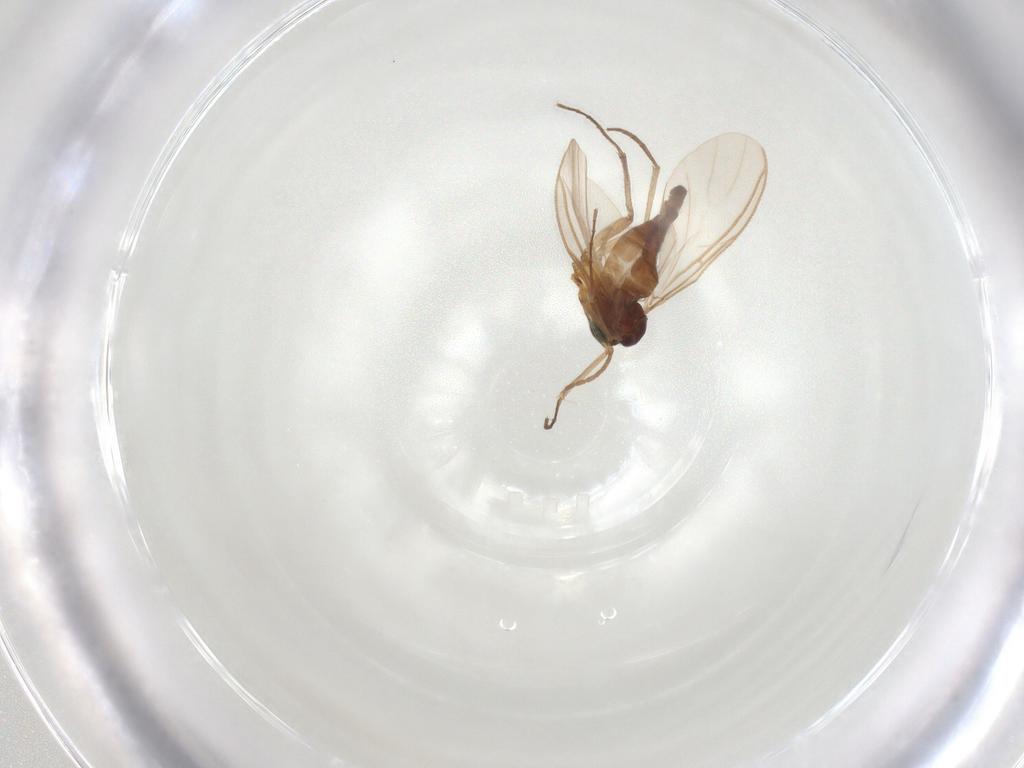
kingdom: Animalia
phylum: Arthropoda
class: Insecta
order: Diptera
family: Sciaridae
